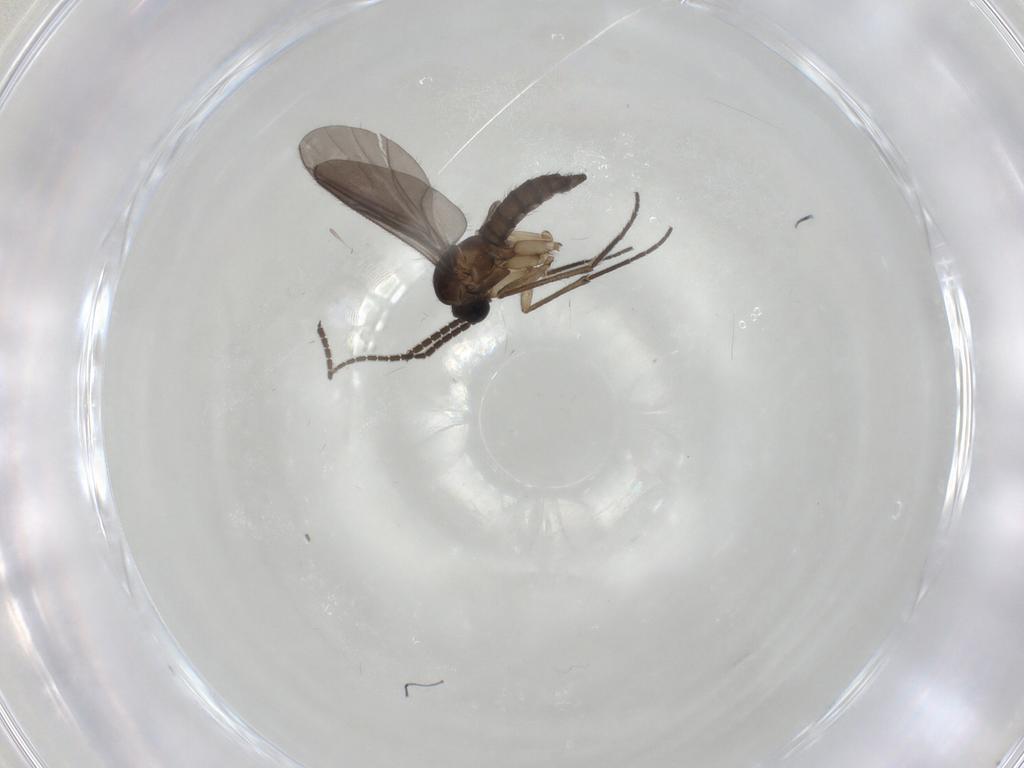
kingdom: Animalia
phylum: Arthropoda
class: Insecta
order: Diptera
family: Sciaridae
